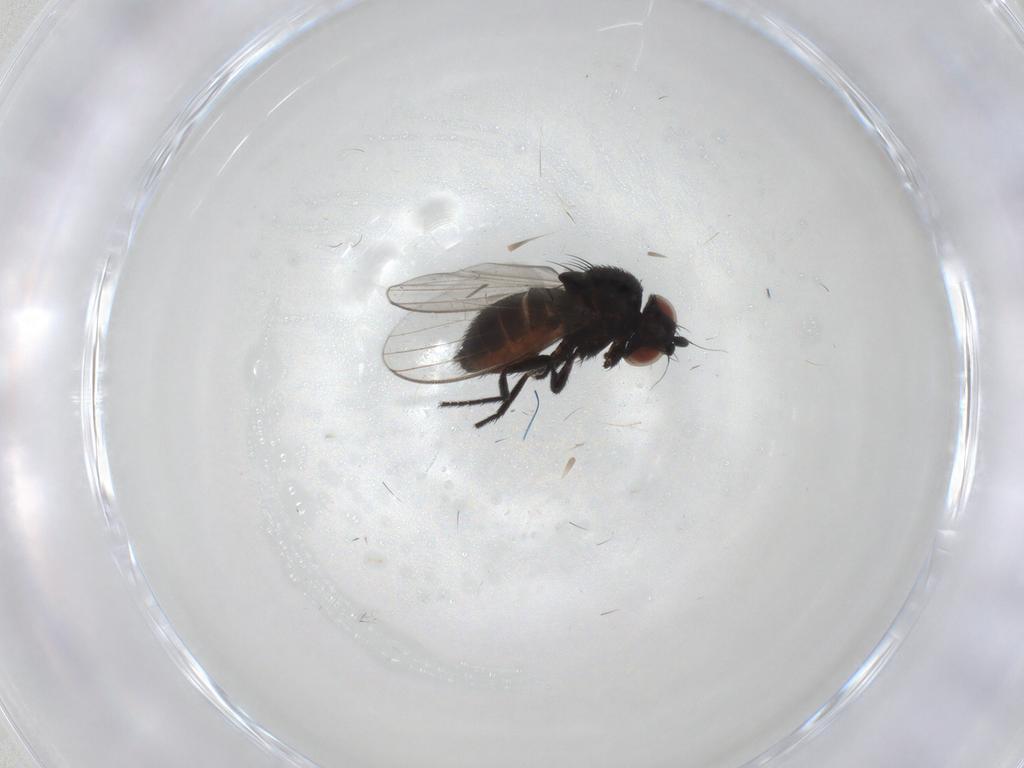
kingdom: Animalia
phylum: Arthropoda
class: Insecta
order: Diptera
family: Milichiidae
